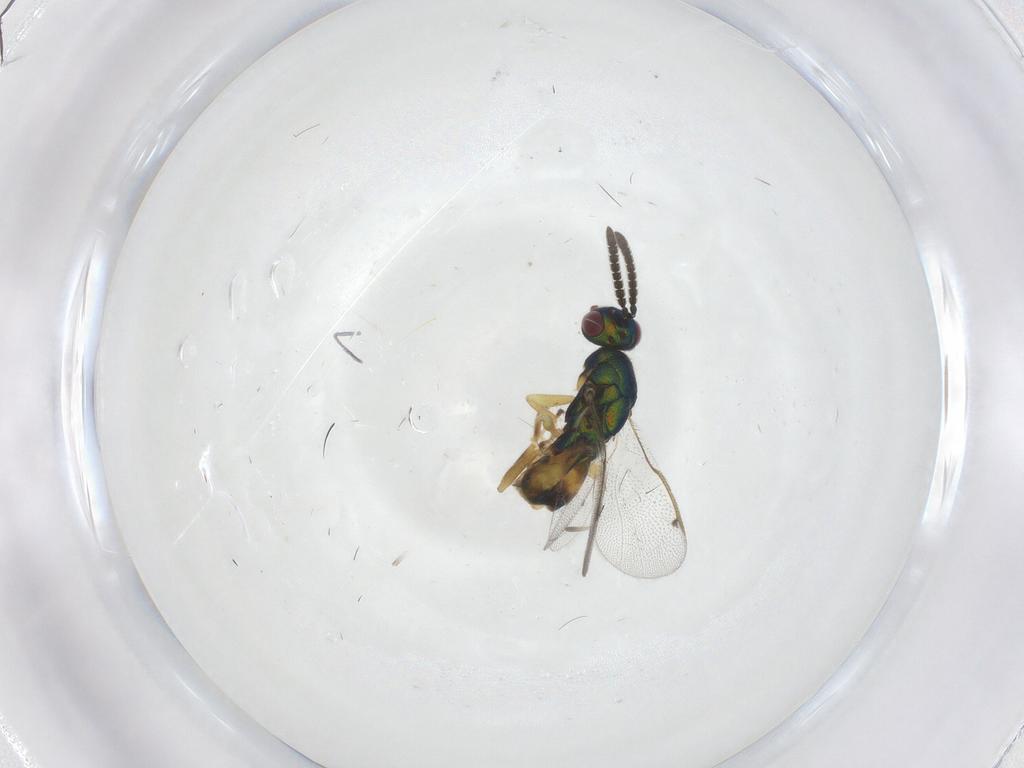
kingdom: Animalia
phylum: Arthropoda
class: Insecta
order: Hymenoptera
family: Torymidae
